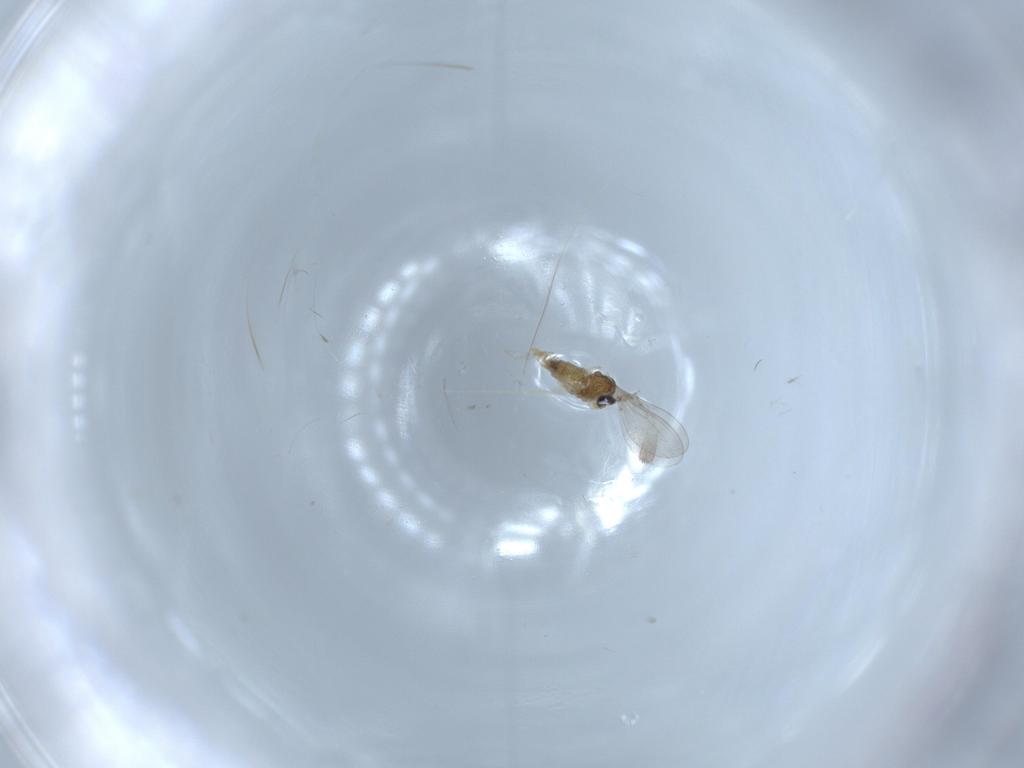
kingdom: Animalia
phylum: Arthropoda
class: Insecta
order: Diptera
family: Cecidomyiidae
